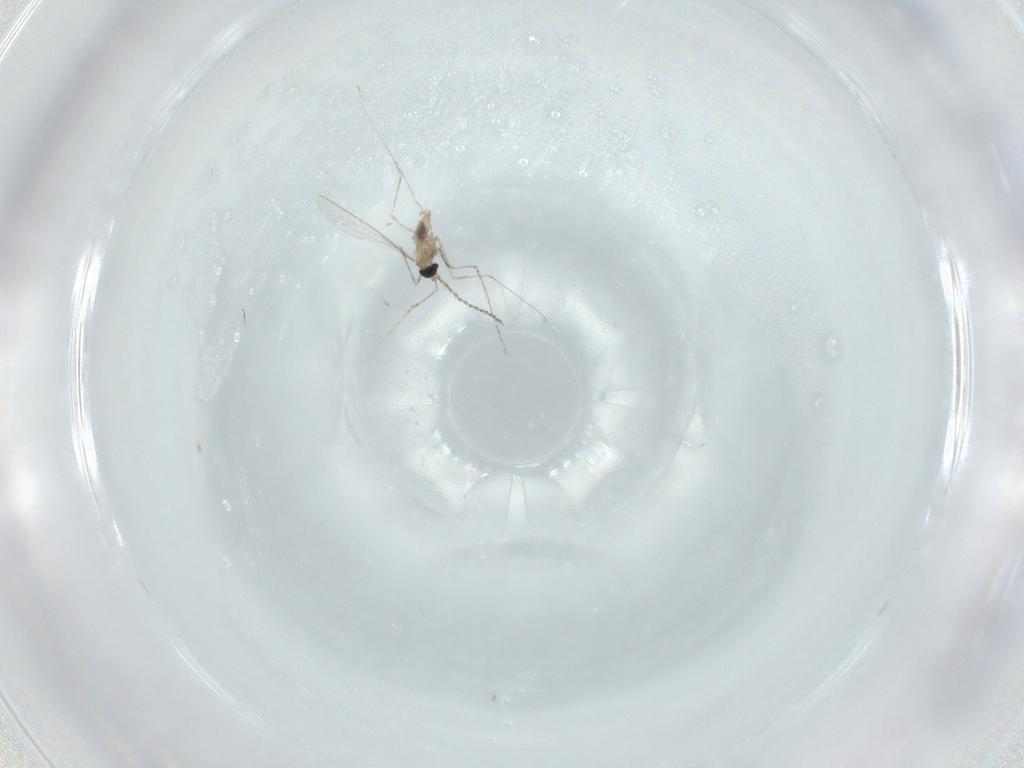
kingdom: Animalia
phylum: Arthropoda
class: Insecta
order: Diptera
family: Cecidomyiidae
